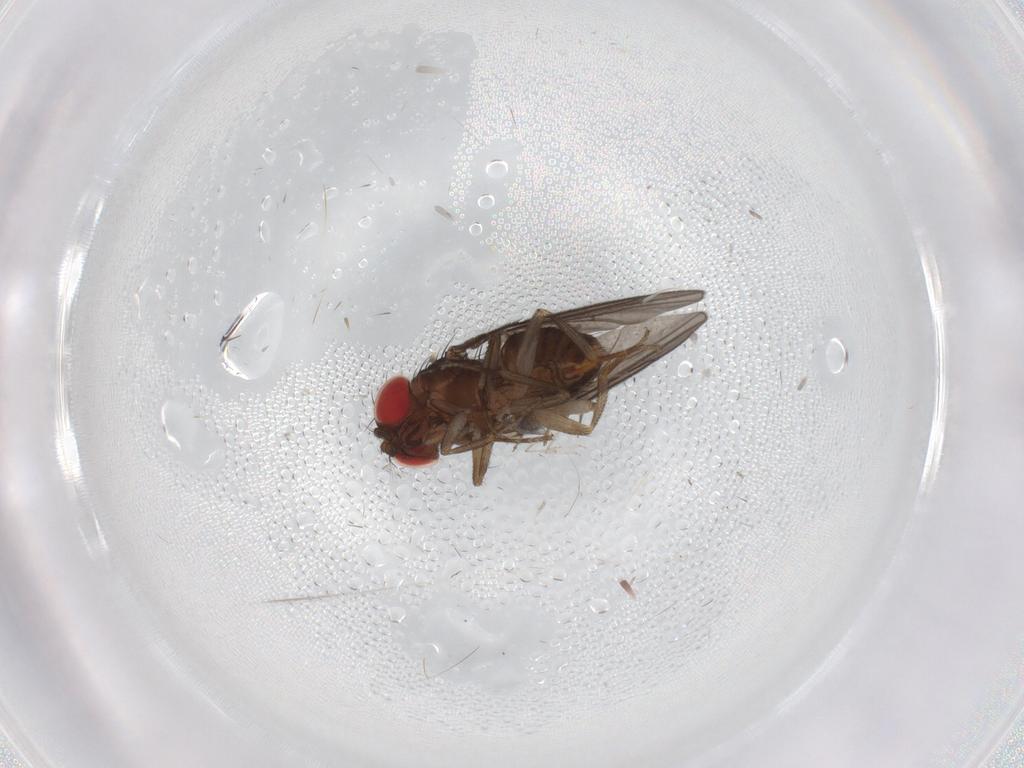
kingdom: Animalia
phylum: Arthropoda
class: Insecta
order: Diptera
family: Drosophilidae
